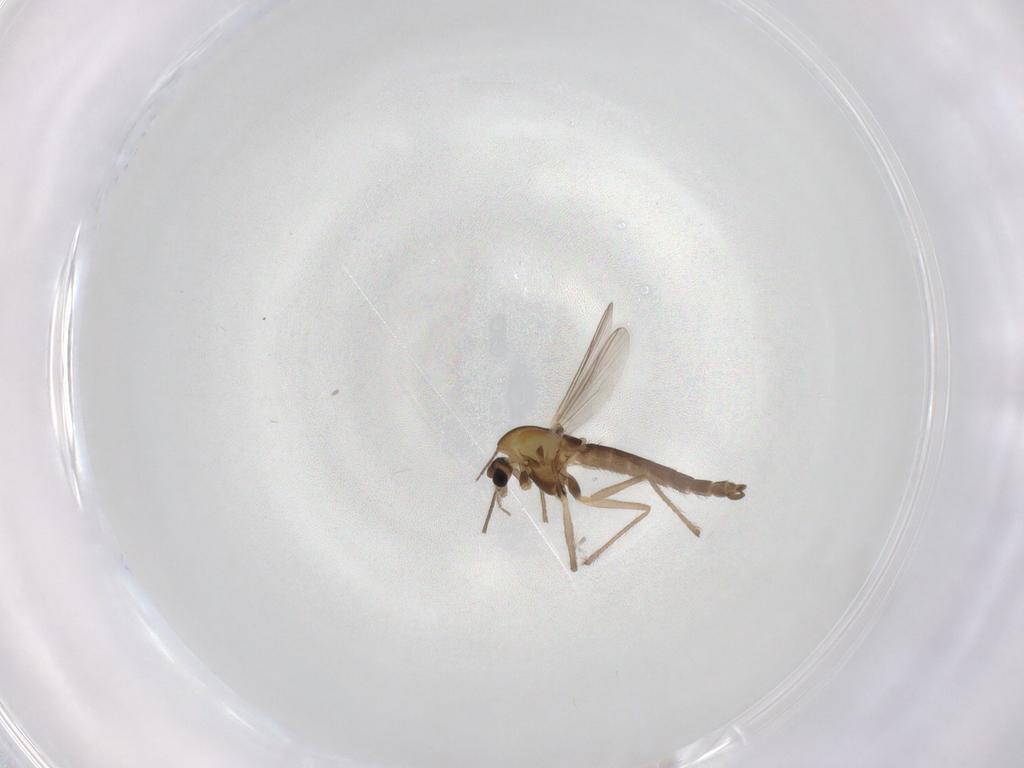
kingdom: Animalia
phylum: Arthropoda
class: Insecta
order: Diptera
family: Chironomidae
